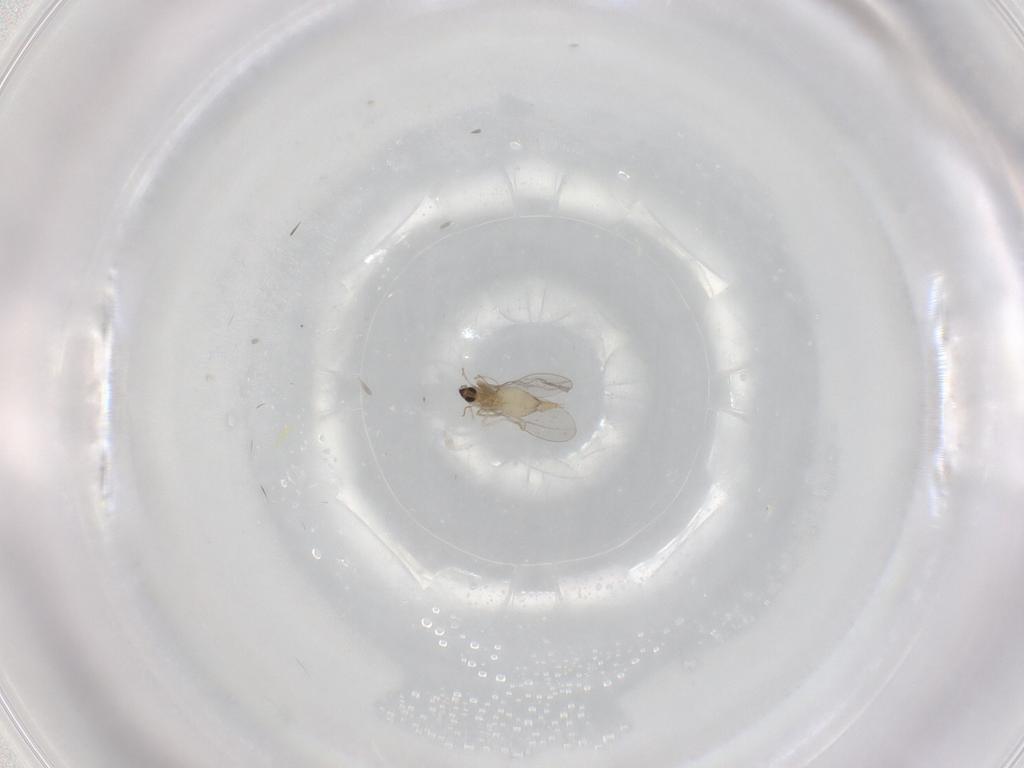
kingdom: Animalia
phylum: Arthropoda
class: Insecta
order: Diptera
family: Cecidomyiidae
